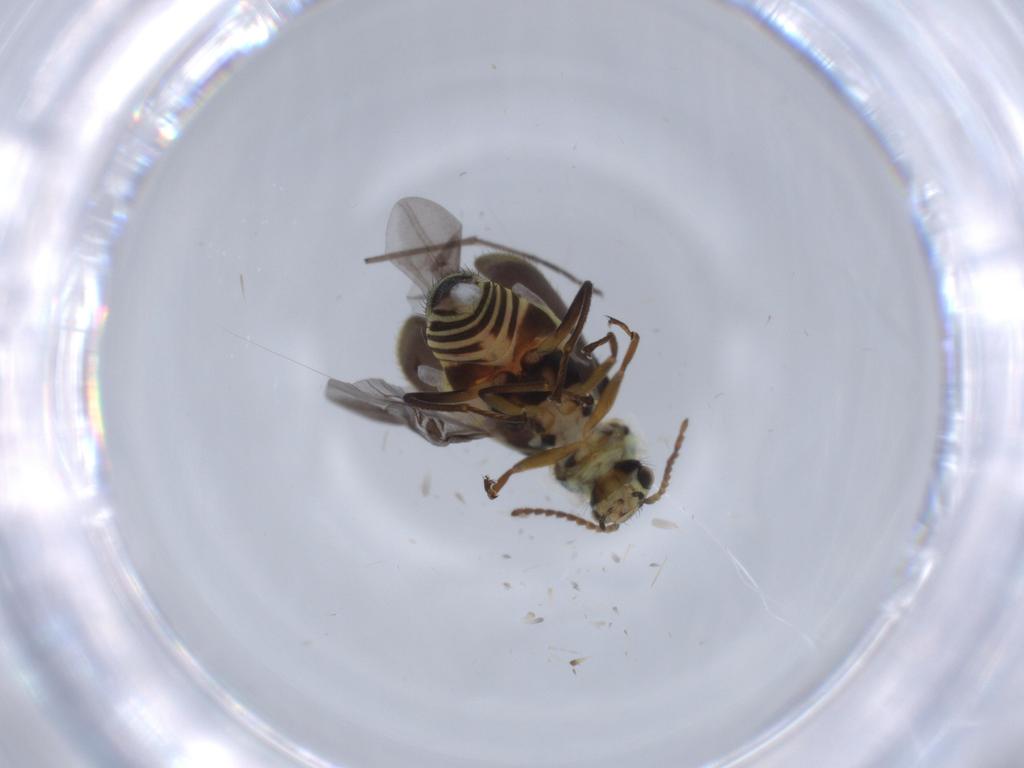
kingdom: Animalia
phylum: Arthropoda
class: Insecta
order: Coleoptera
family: Melyridae
